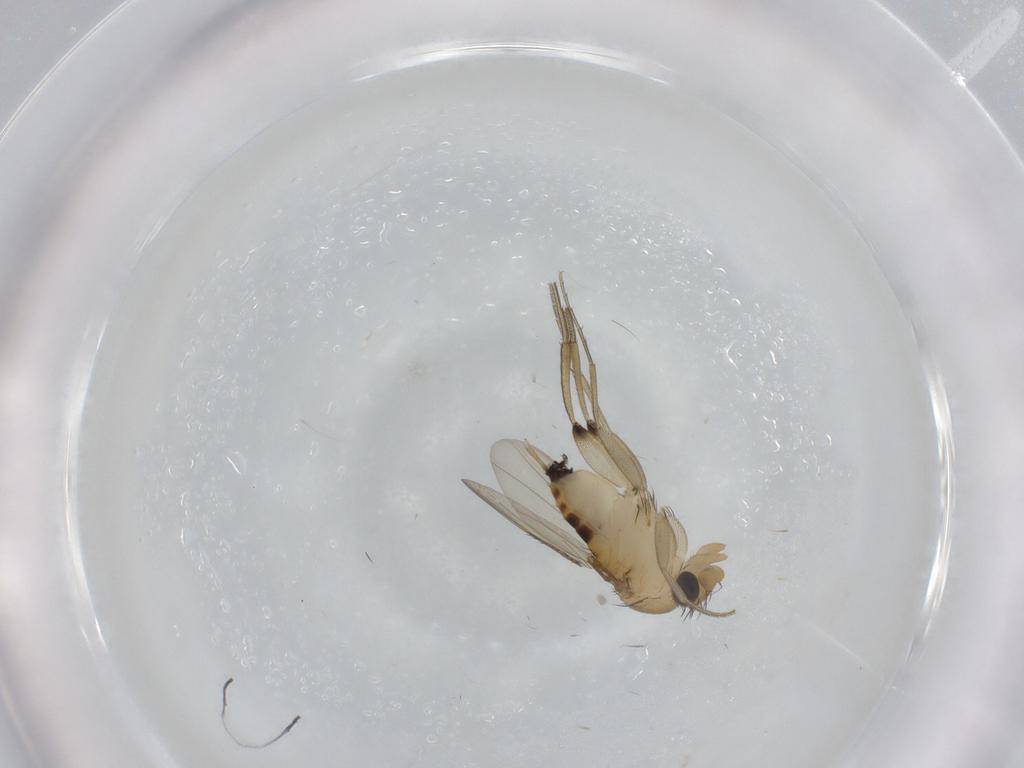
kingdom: Animalia
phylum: Arthropoda
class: Insecta
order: Diptera
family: Phoridae
